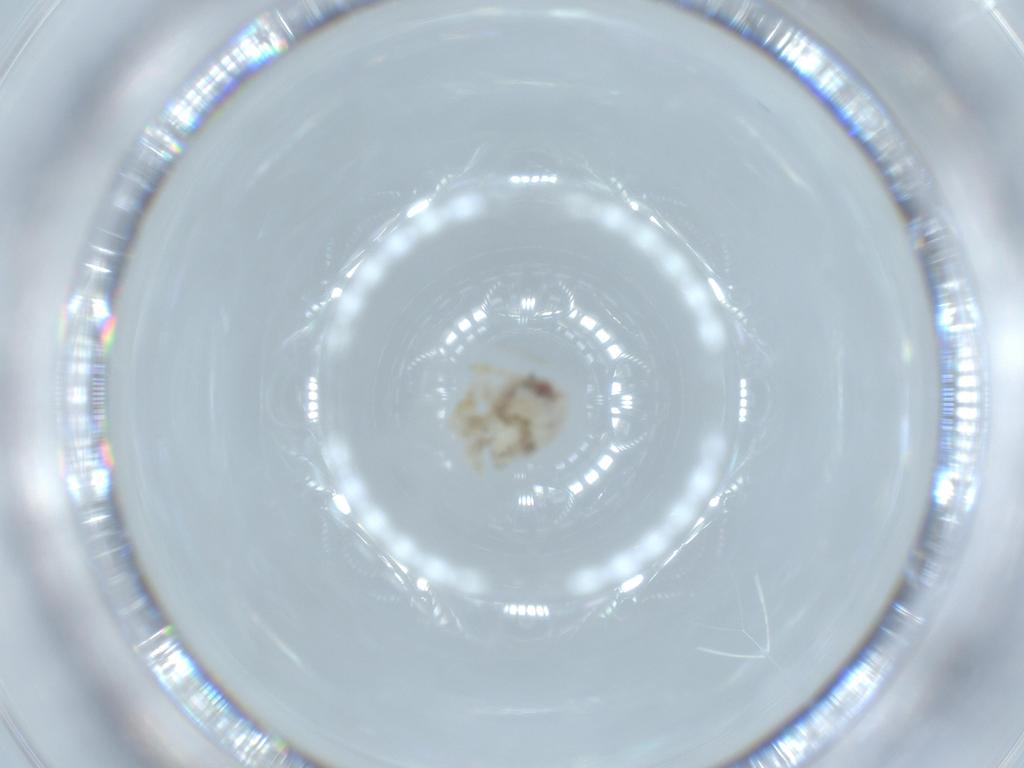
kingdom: Animalia
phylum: Arthropoda
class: Insecta
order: Hemiptera
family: Acanaloniidae
